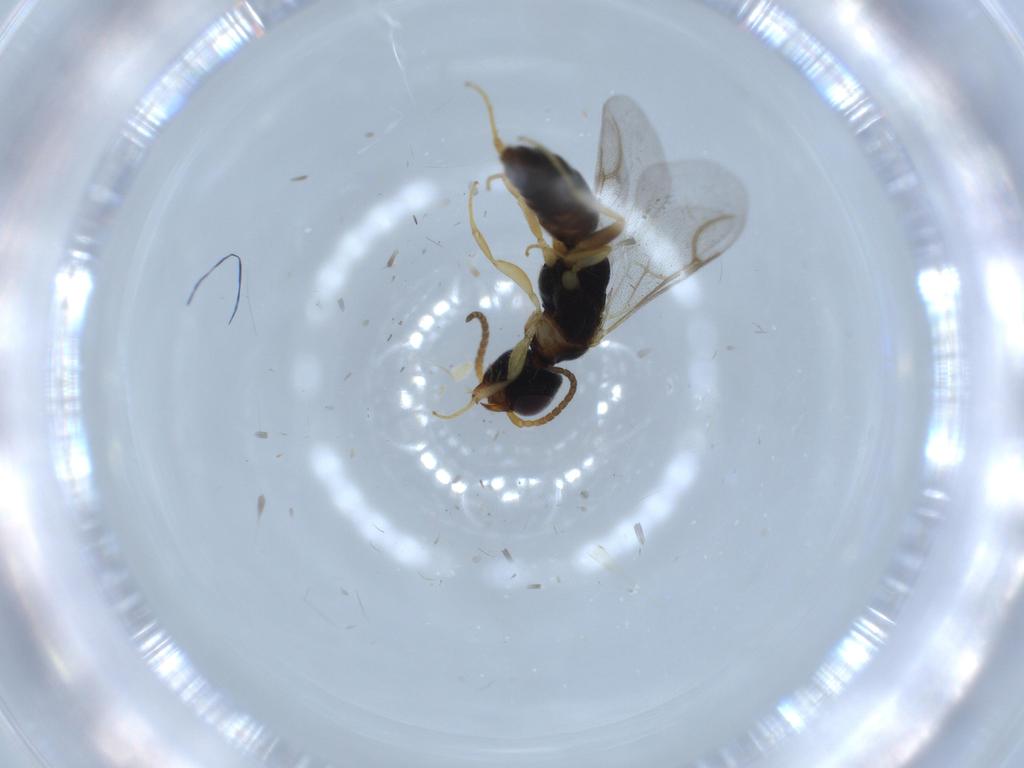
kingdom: Animalia
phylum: Arthropoda
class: Insecta
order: Hymenoptera
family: Bethylidae
